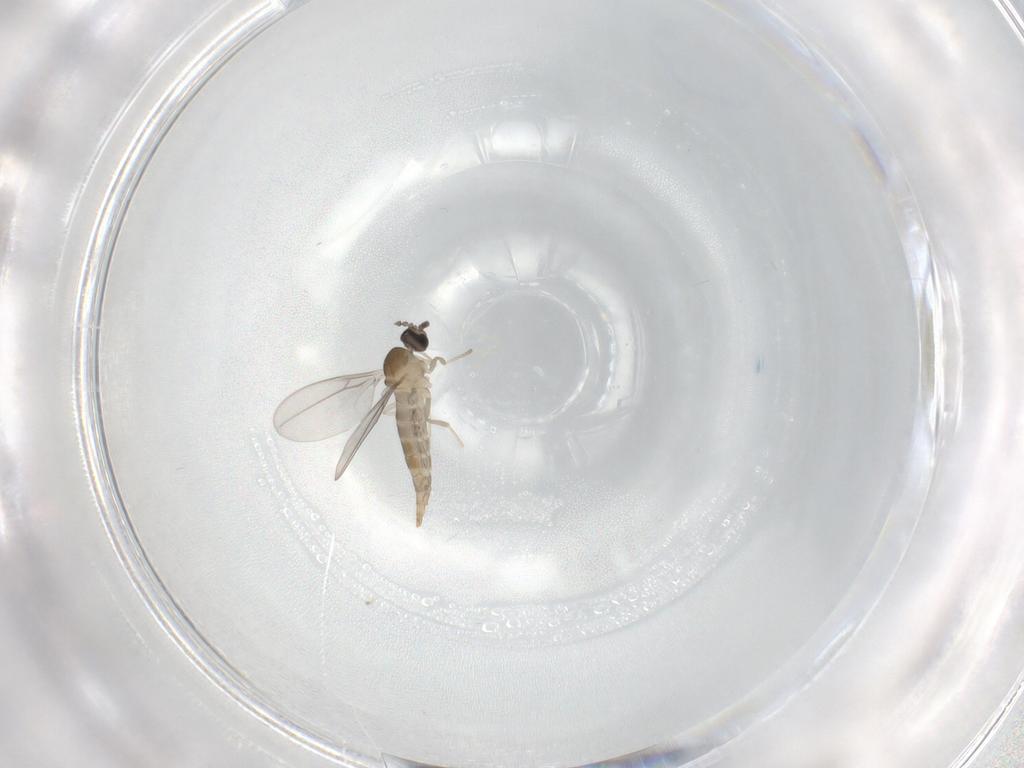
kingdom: Animalia
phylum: Arthropoda
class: Insecta
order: Diptera
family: Cecidomyiidae
